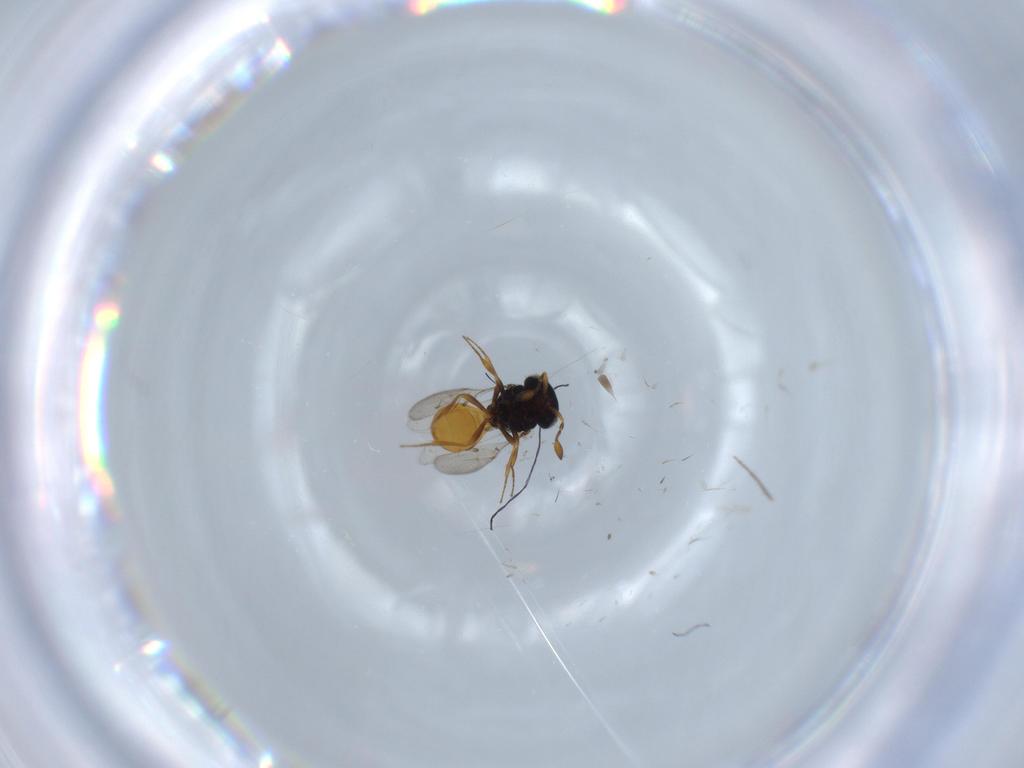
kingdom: Animalia
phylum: Arthropoda
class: Insecta
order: Hymenoptera
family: Scelionidae
